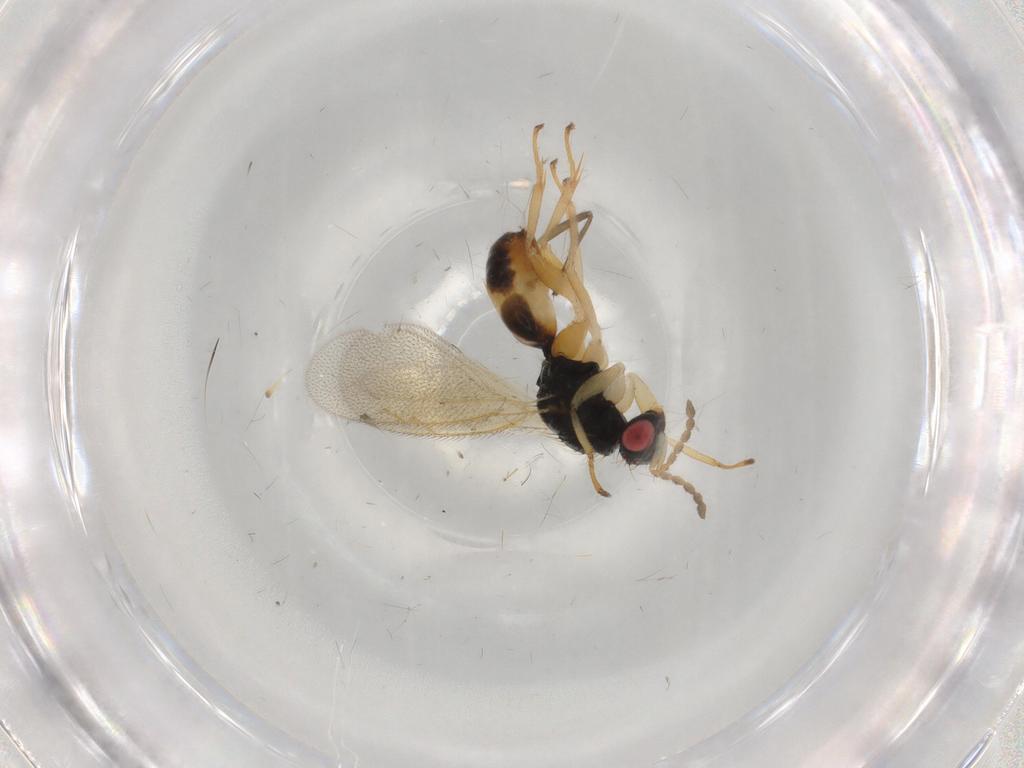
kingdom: Animalia
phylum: Arthropoda
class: Insecta
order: Hymenoptera
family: Eulophidae
